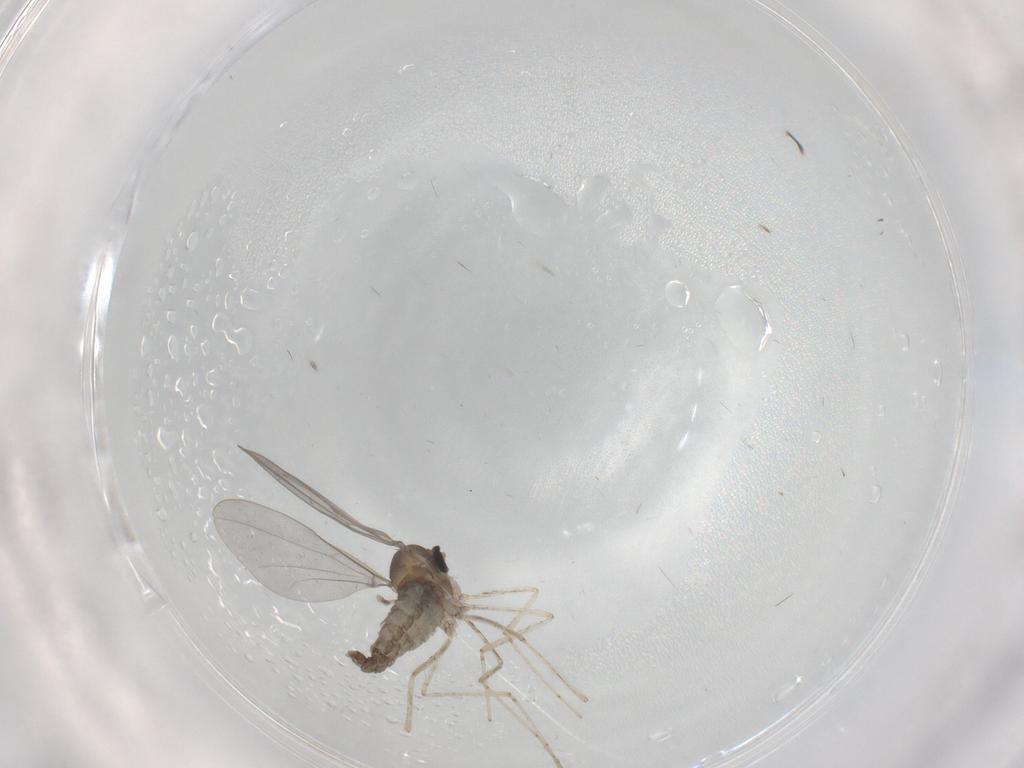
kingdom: Animalia
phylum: Arthropoda
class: Insecta
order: Diptera
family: Cecidomyiidae
